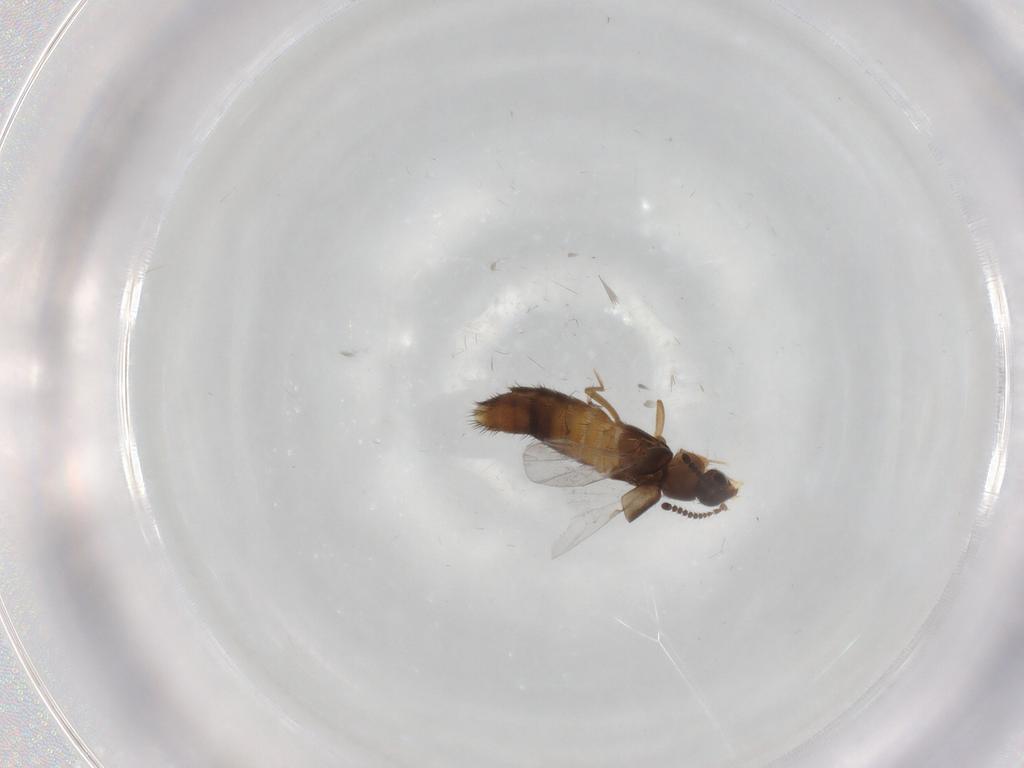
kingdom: Animalia
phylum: Arthropoda
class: Insecta
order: Coleoptera
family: Staphylinidae
